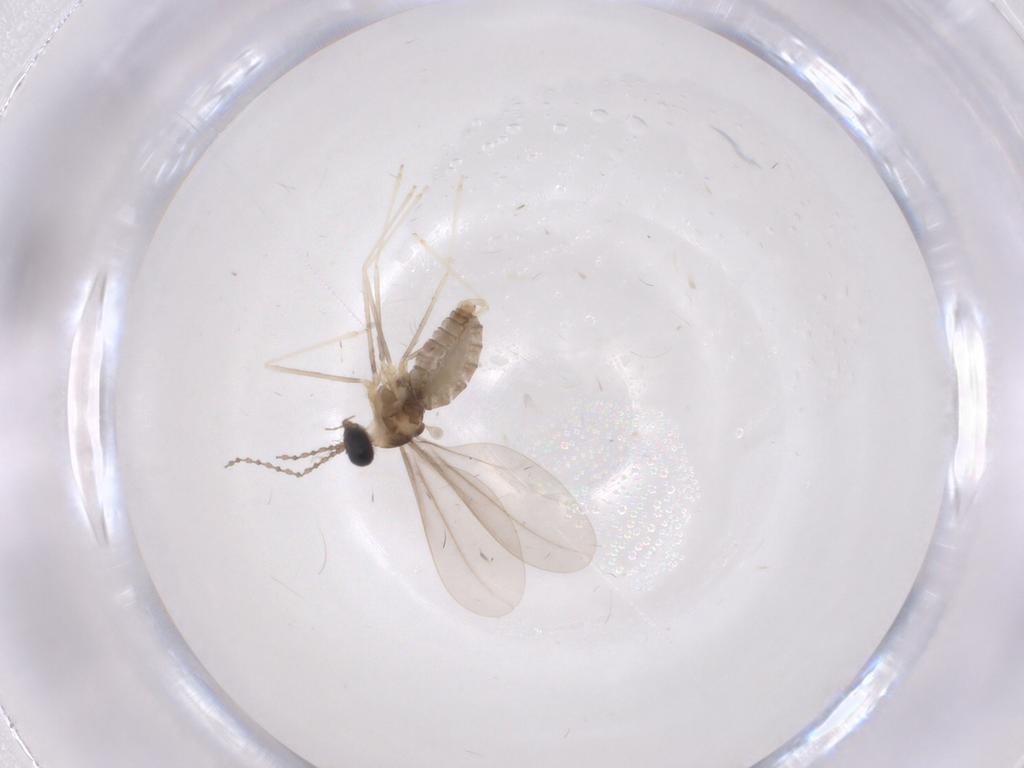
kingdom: Animalia
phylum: Arthropoda
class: Insecta
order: Diptera
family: Cecidomyiidae
